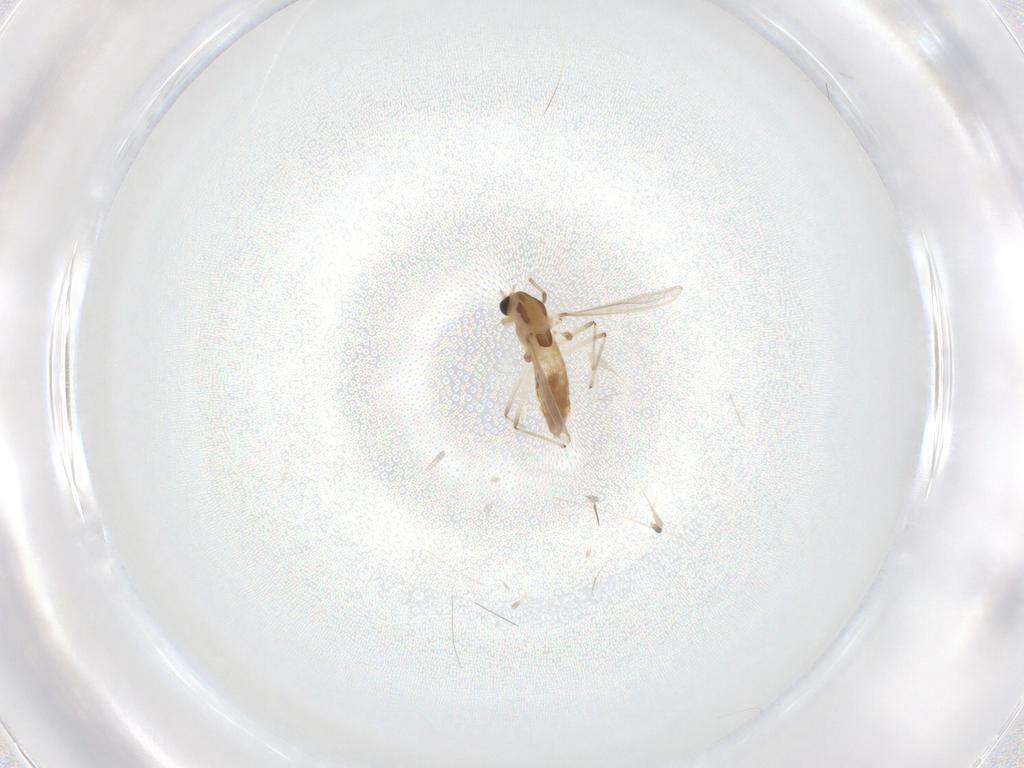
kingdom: Animalia
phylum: Arthropoda
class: Insecta
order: Diptera
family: Chironomidae
